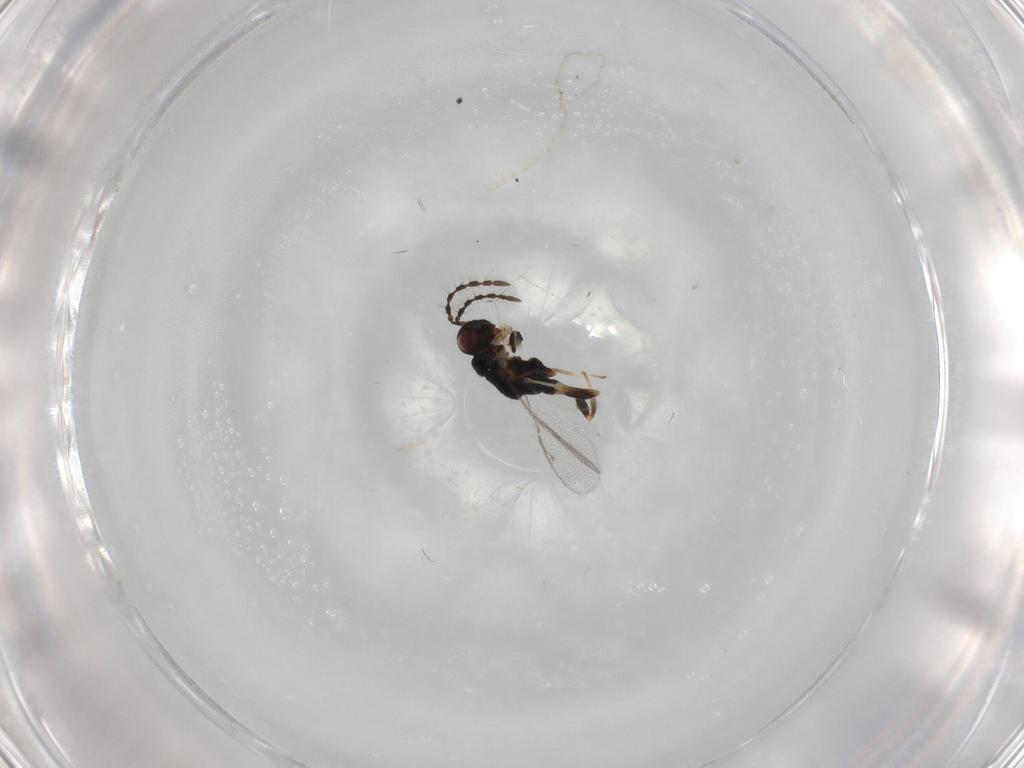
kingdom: Animalia
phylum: Arthropoda
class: Insecta
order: Hymenoptera
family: Eurytomidae
